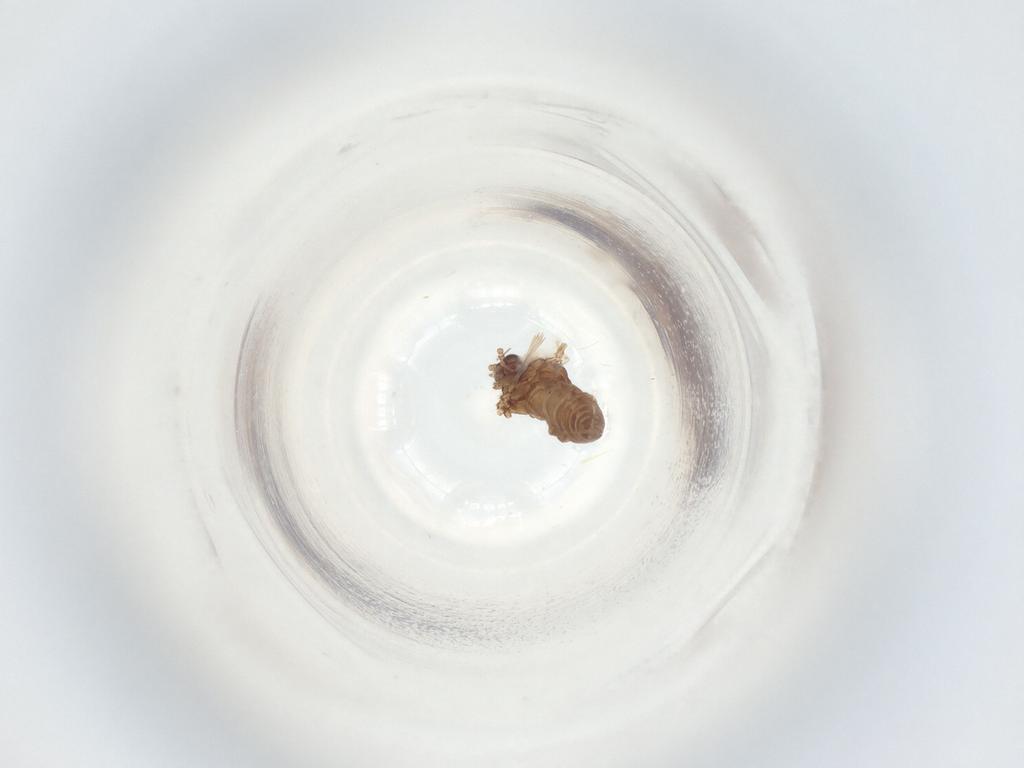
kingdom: Animalia
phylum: Arthropoda
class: Insecta
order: Diptera
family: Sciaridae
